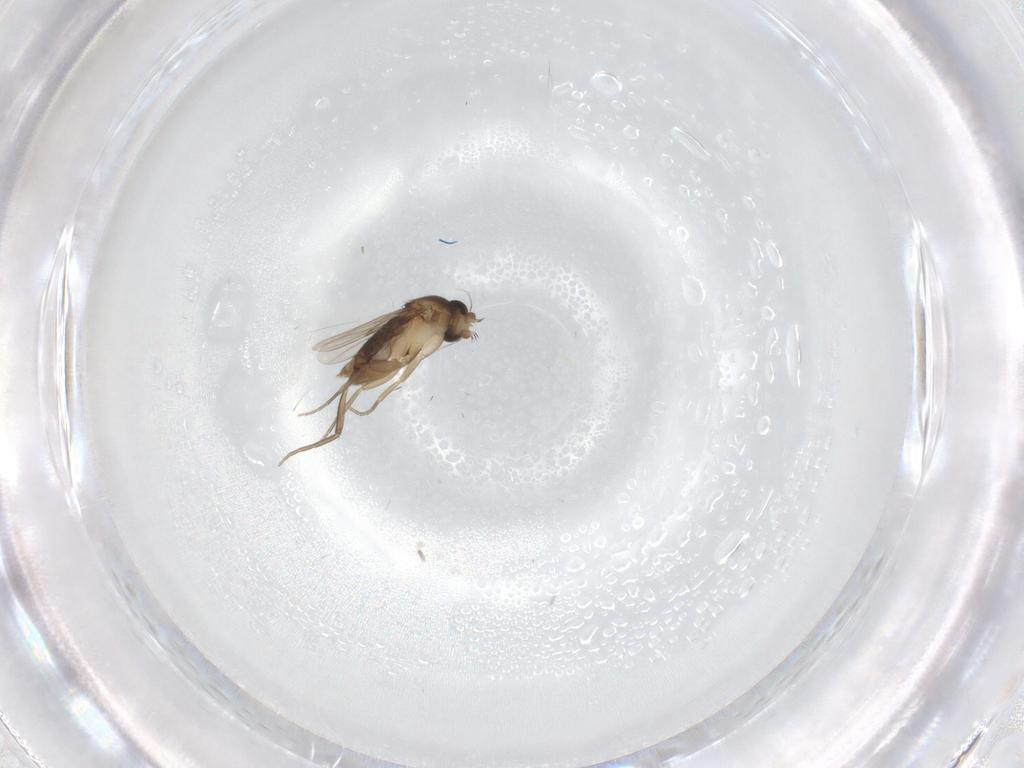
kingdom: Animalia
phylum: Arthropoda
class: Insecta
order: Diptera
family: Phoridae
